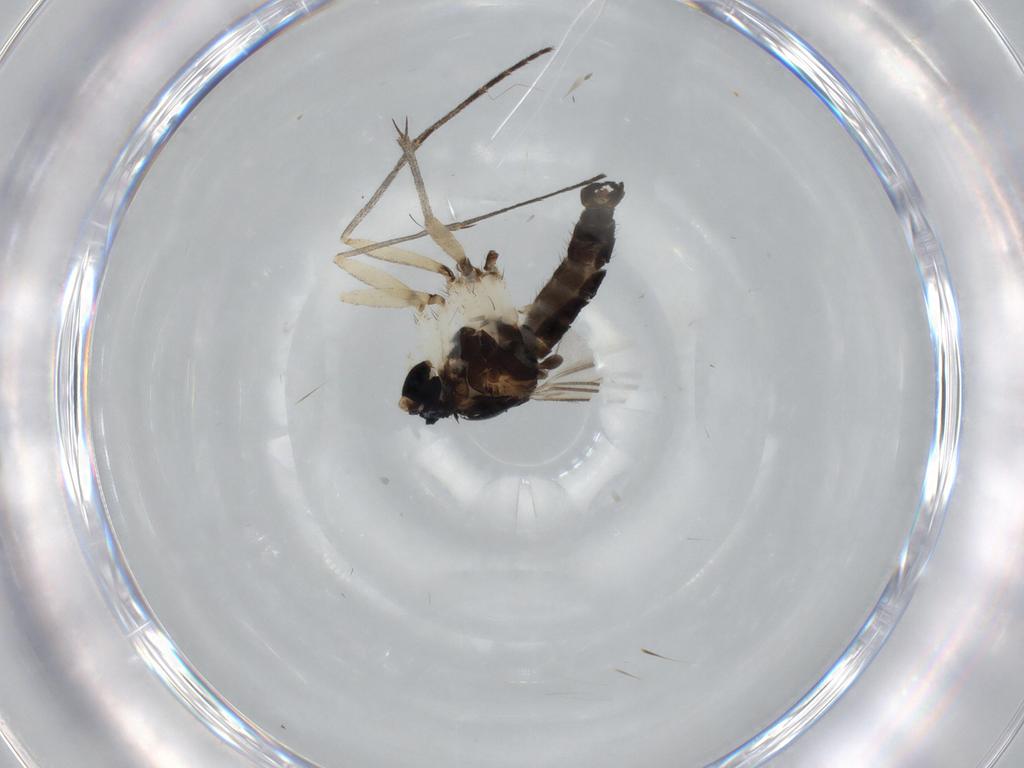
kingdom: Animalia
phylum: Arthropoda
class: Insecta
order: Diptera
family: Sciaridae
